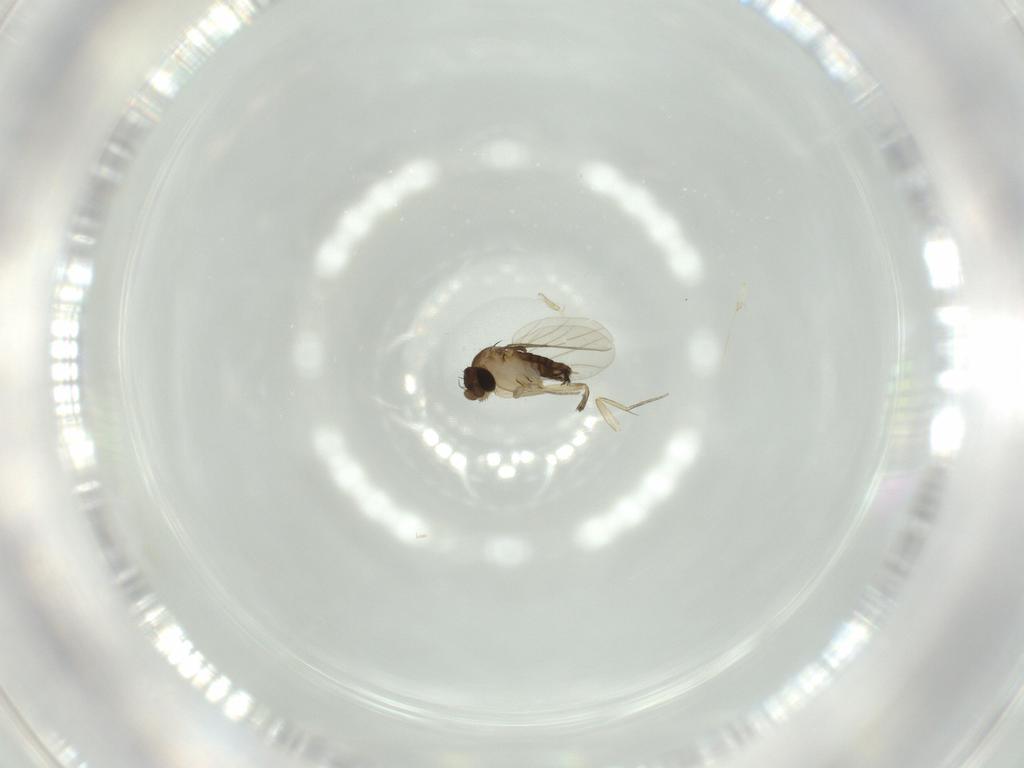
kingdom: Animalia
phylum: Arthropoda
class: Insecta
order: Diptera
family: Phoridae
